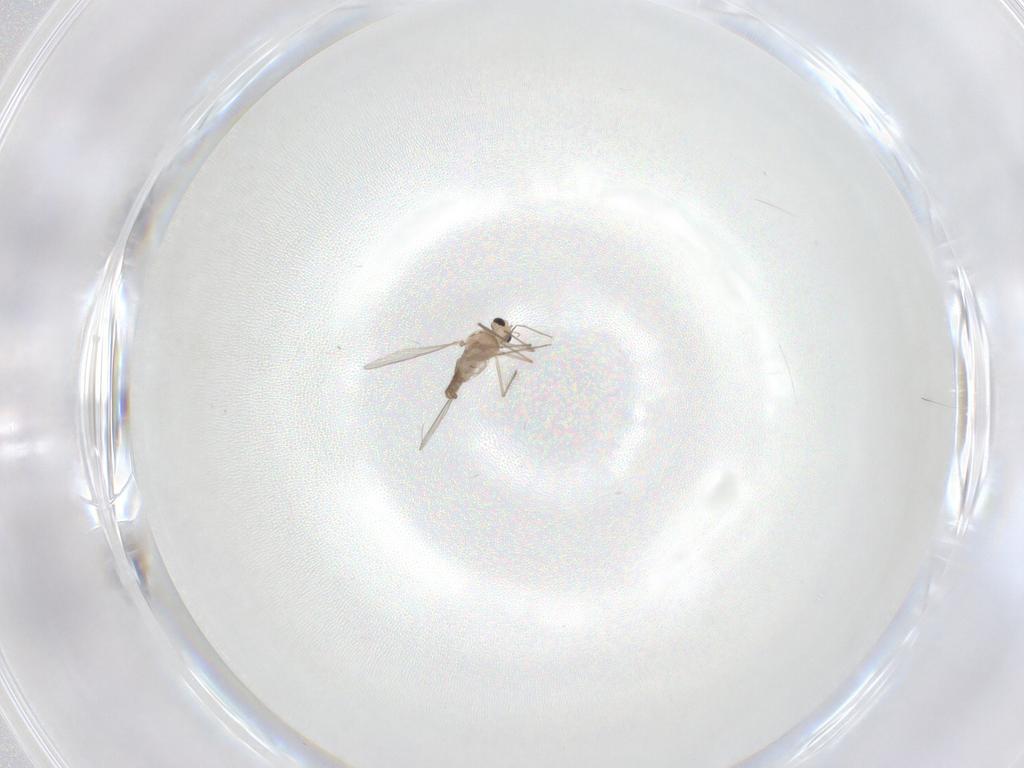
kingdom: Animalia
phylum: Arthropoda
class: Insecta
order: Diptera
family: Chironomidae
